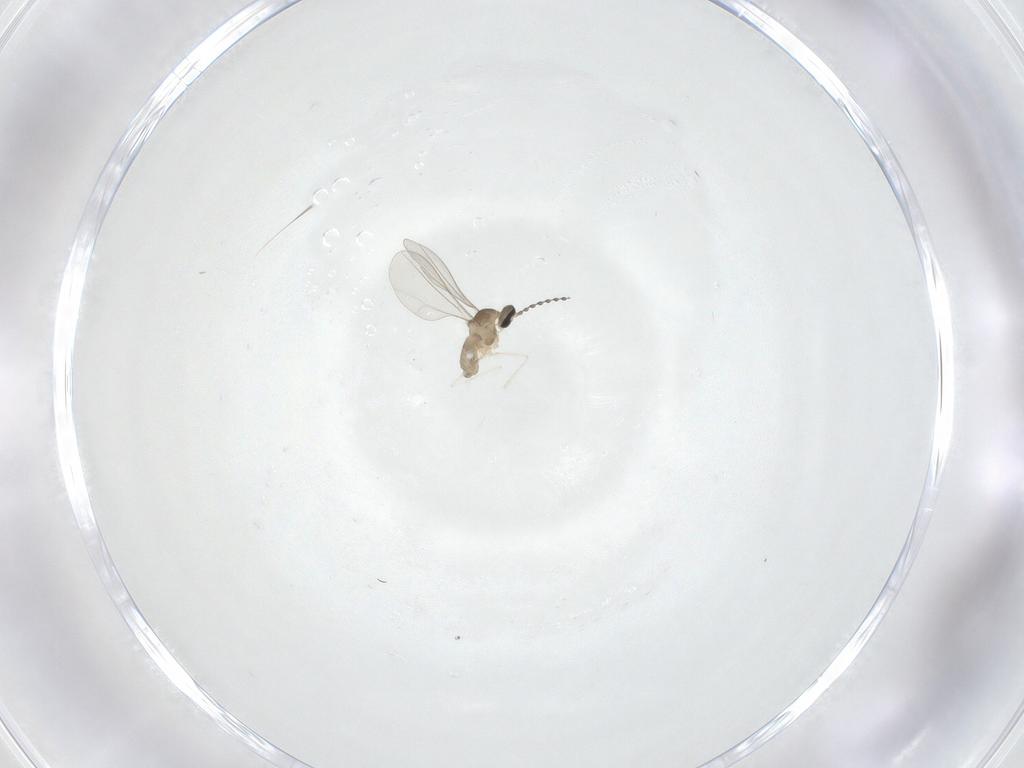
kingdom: Animalia
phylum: Arthropoda
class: Insecta
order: Diptera
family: Cecidomyiidae
